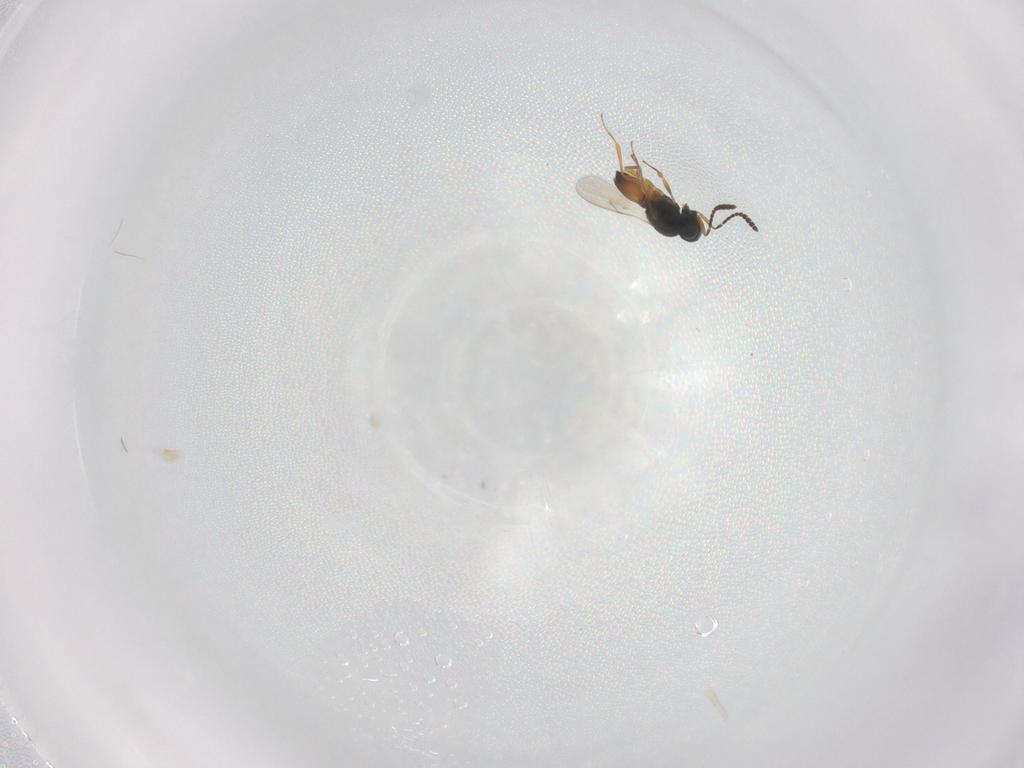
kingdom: Animalia
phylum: Arthropoda
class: Insecta
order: Hymenoptera
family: Scelionidae
